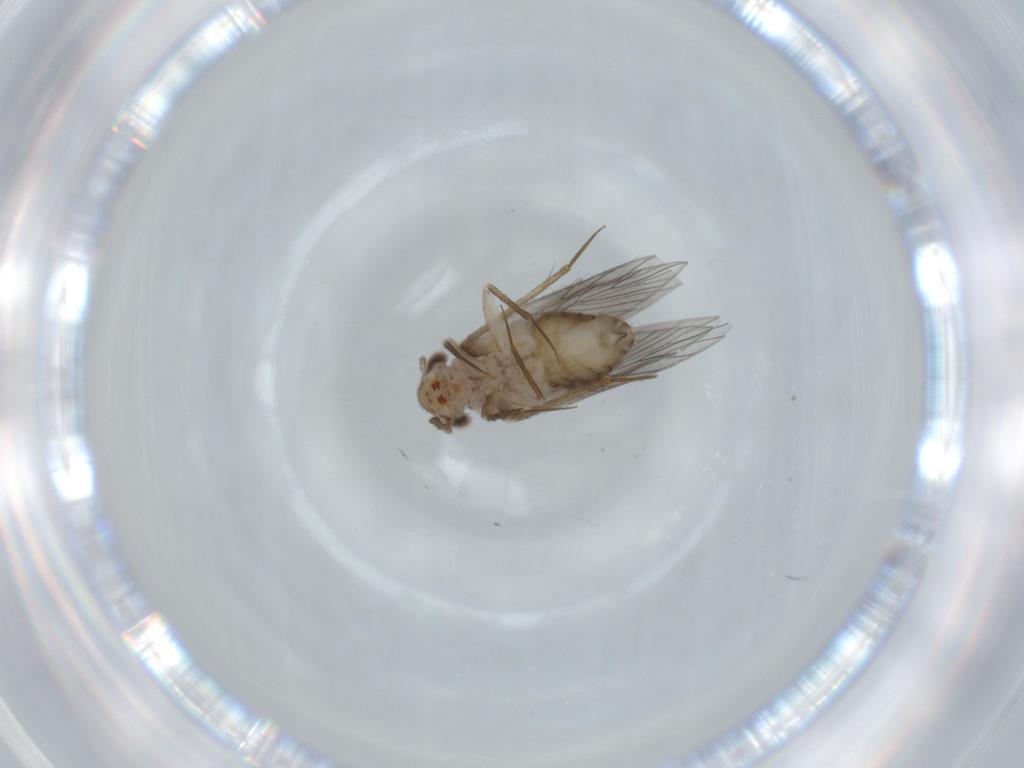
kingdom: Animalia
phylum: Arthropoda
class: Insecta
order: Psocodea
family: Lepidopsocidae
